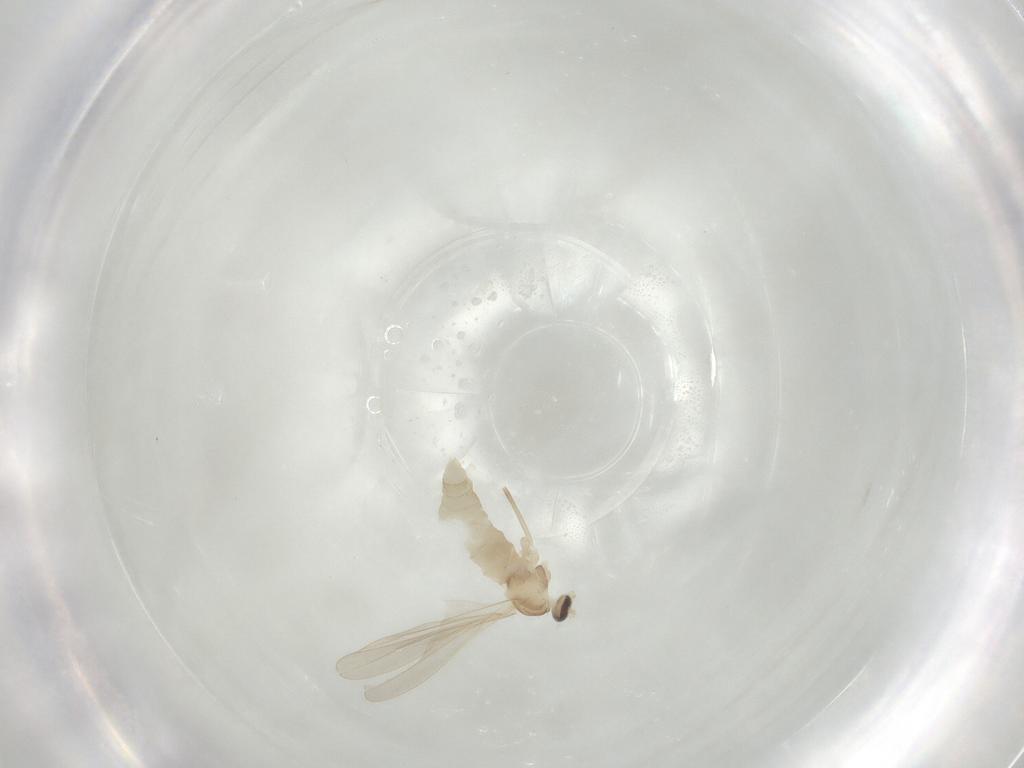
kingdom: Animalia
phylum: Arthropoda
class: Insecta
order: Diptera
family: Cecidomyiidae
